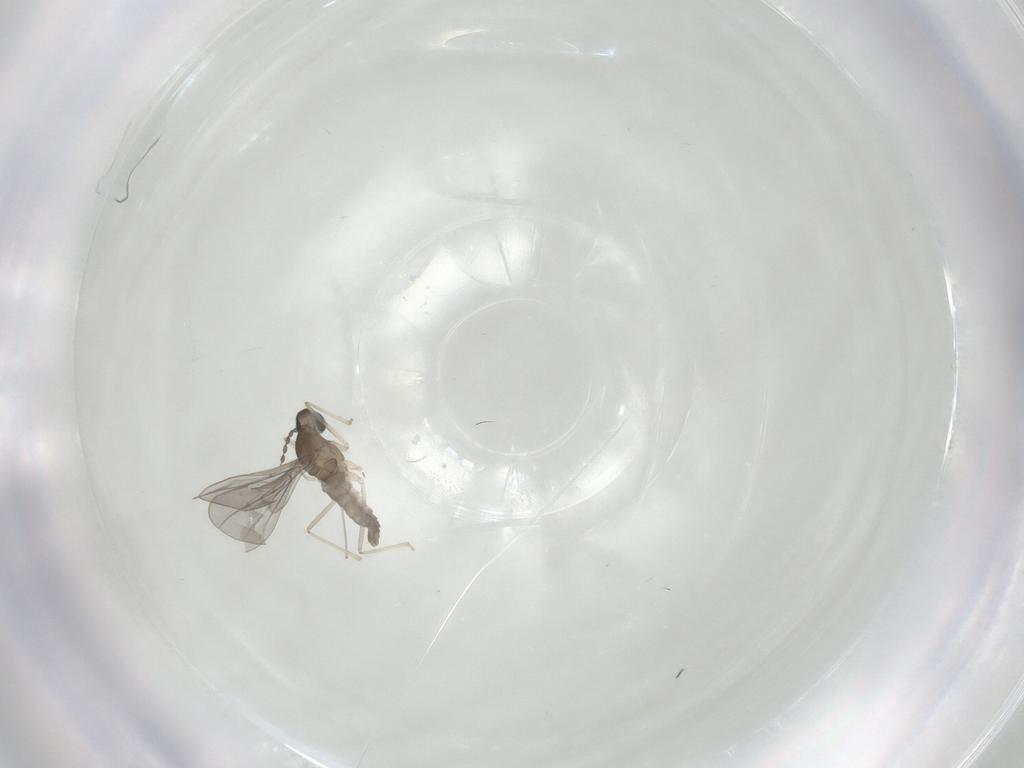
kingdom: Animalia
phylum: Arthropoda
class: Insecta
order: Diptera
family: Cecidomyiidae
